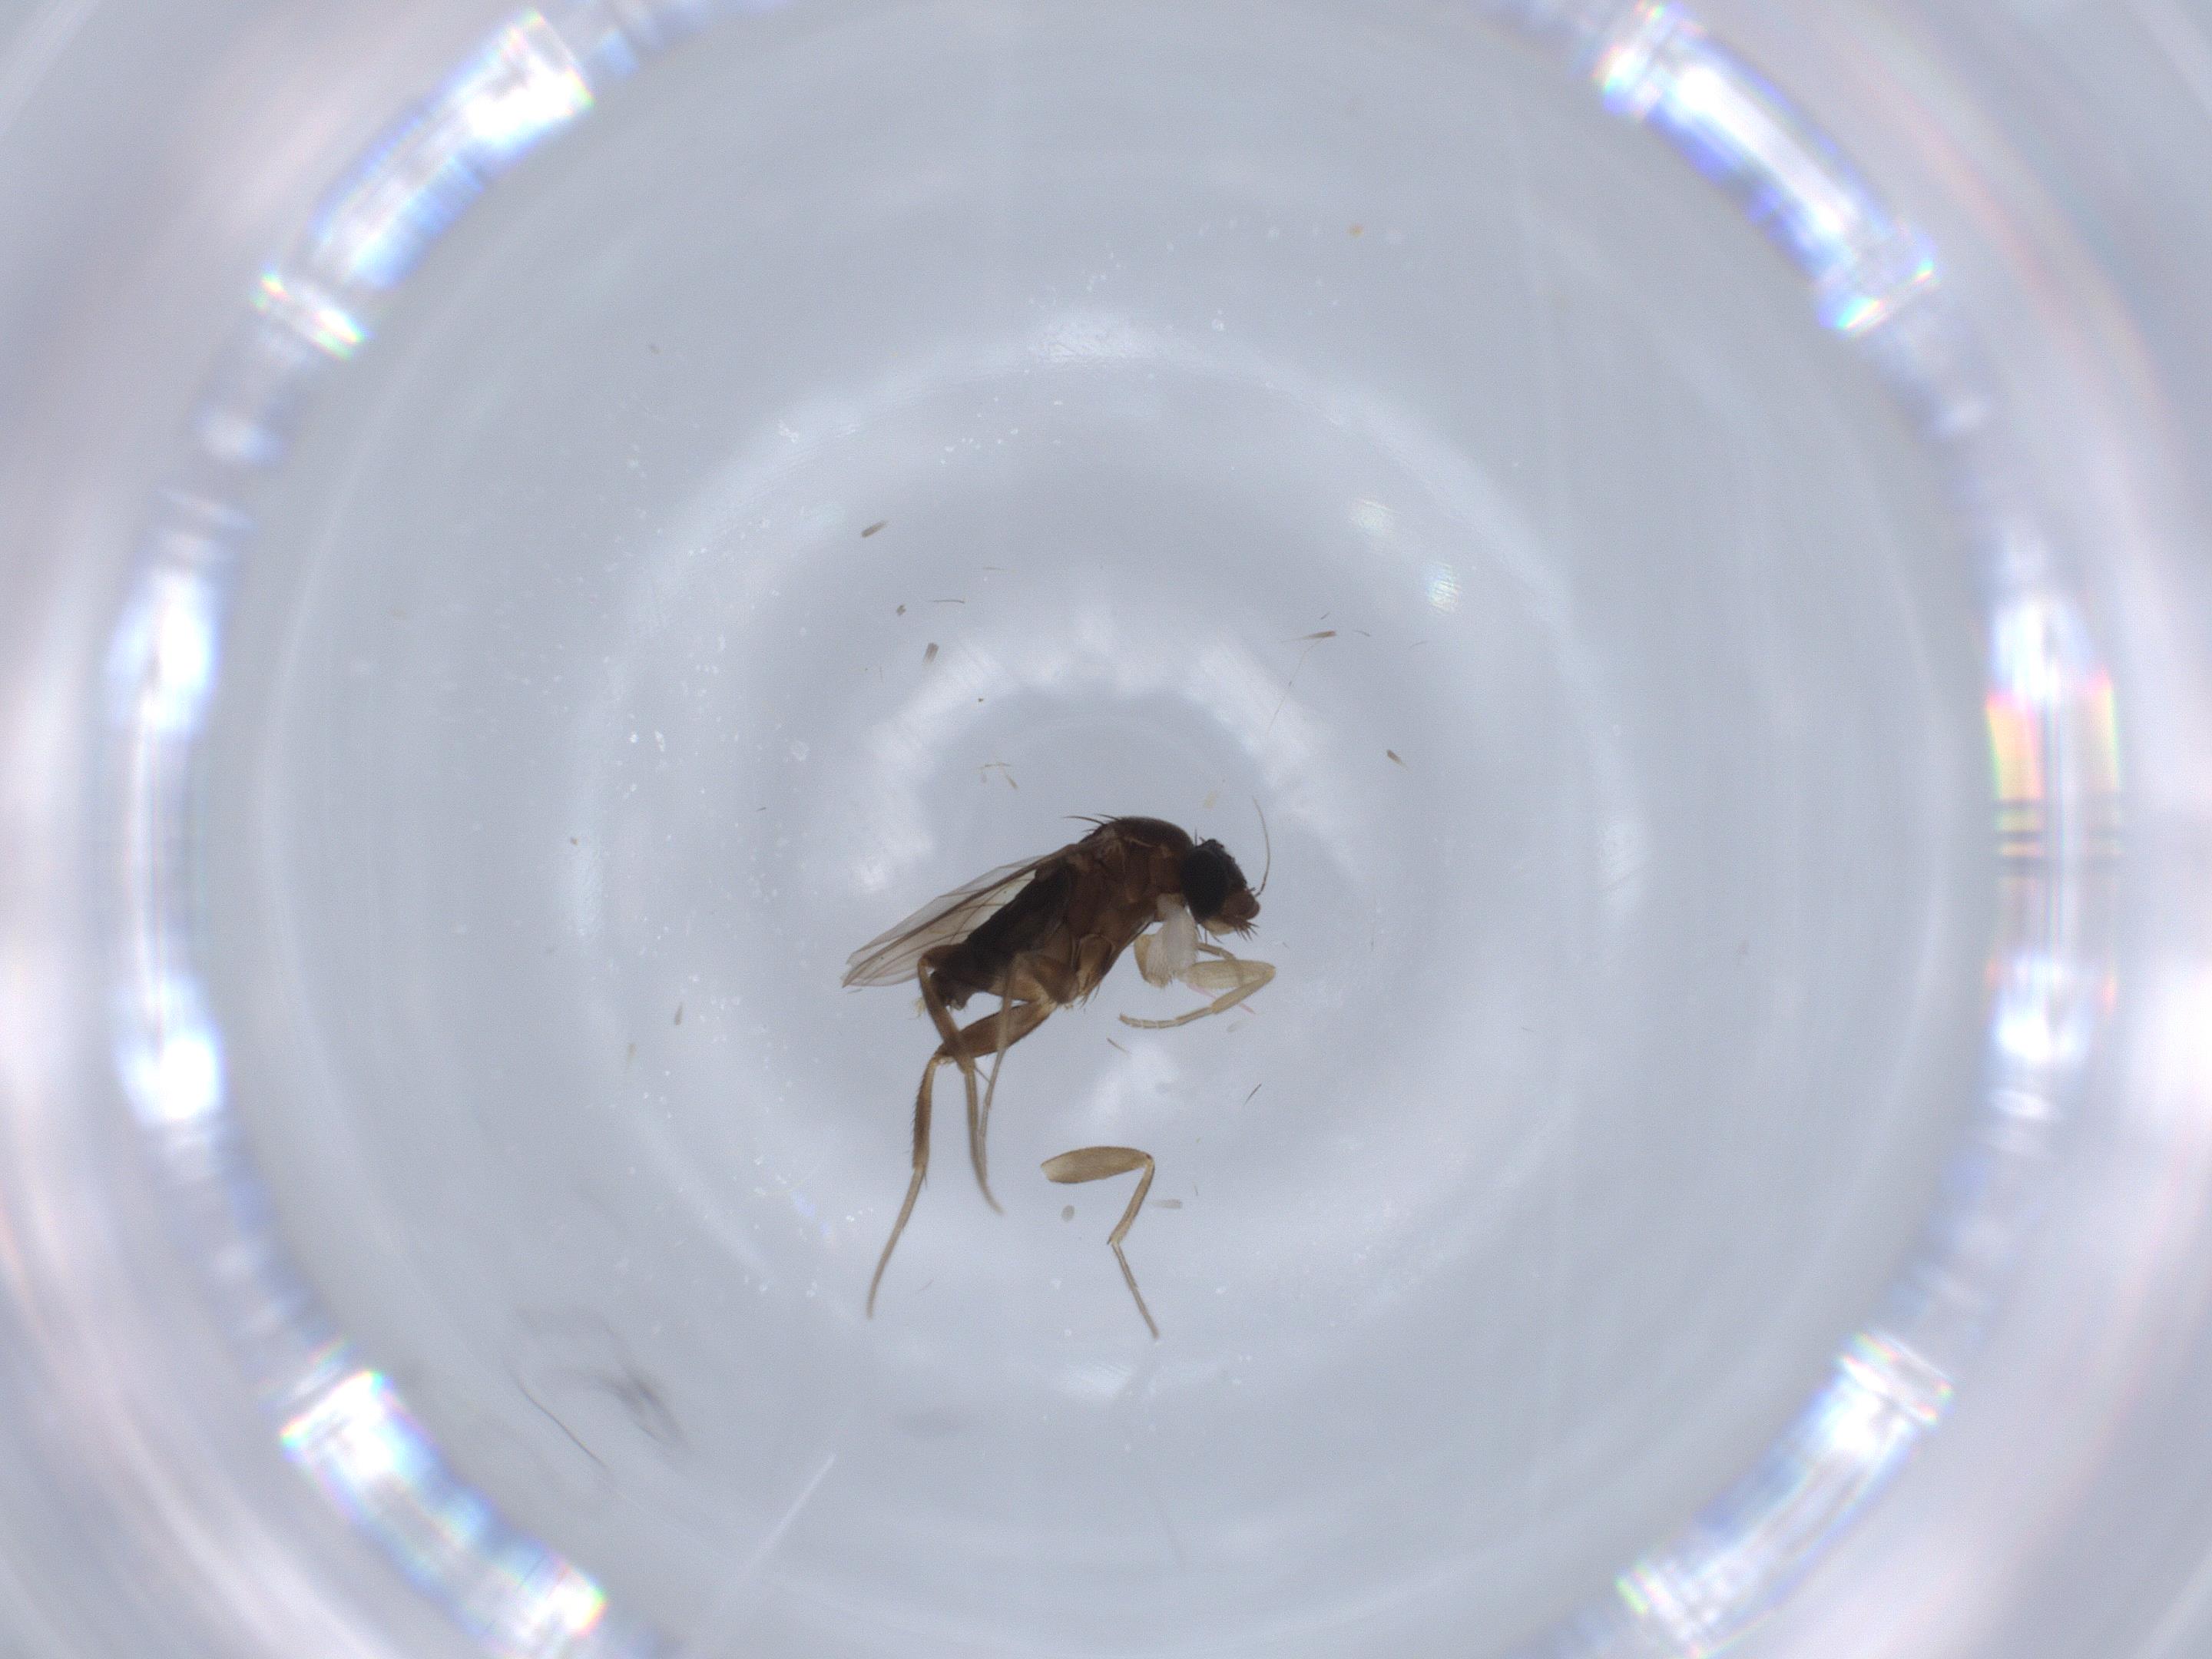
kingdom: Animalia
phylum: Arthropoda
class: Insecta
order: Diptera
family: Phoridae
